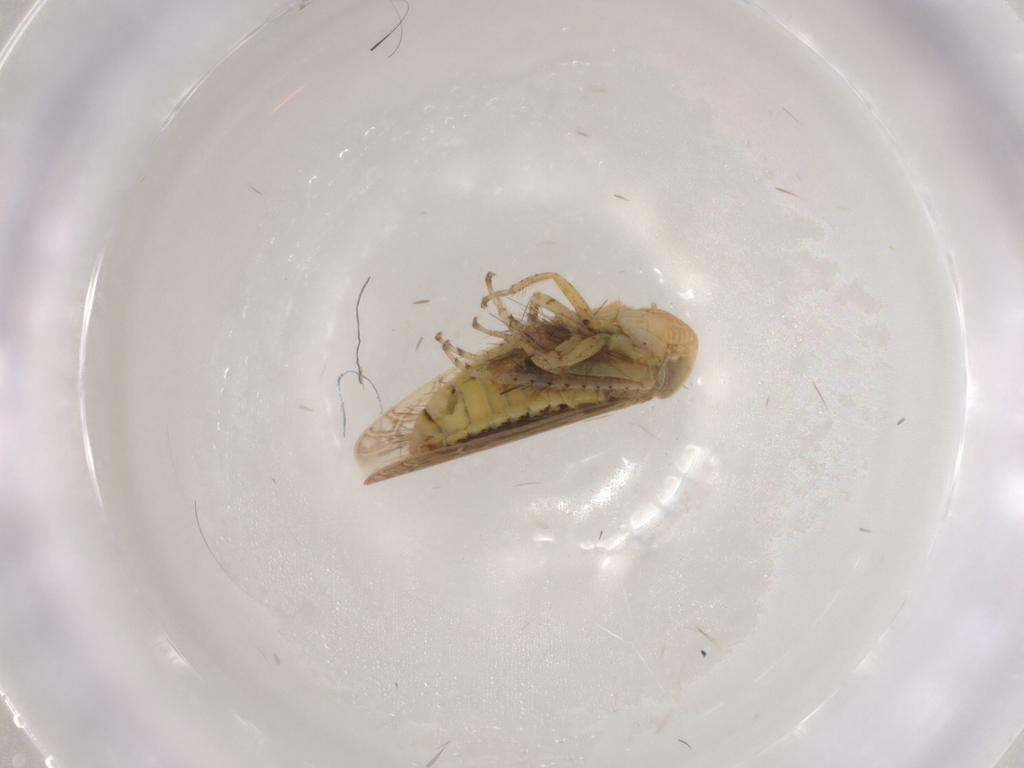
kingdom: Animalia
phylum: Arthropoda
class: Insecta
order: Hemiptera
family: Cicadellidae
